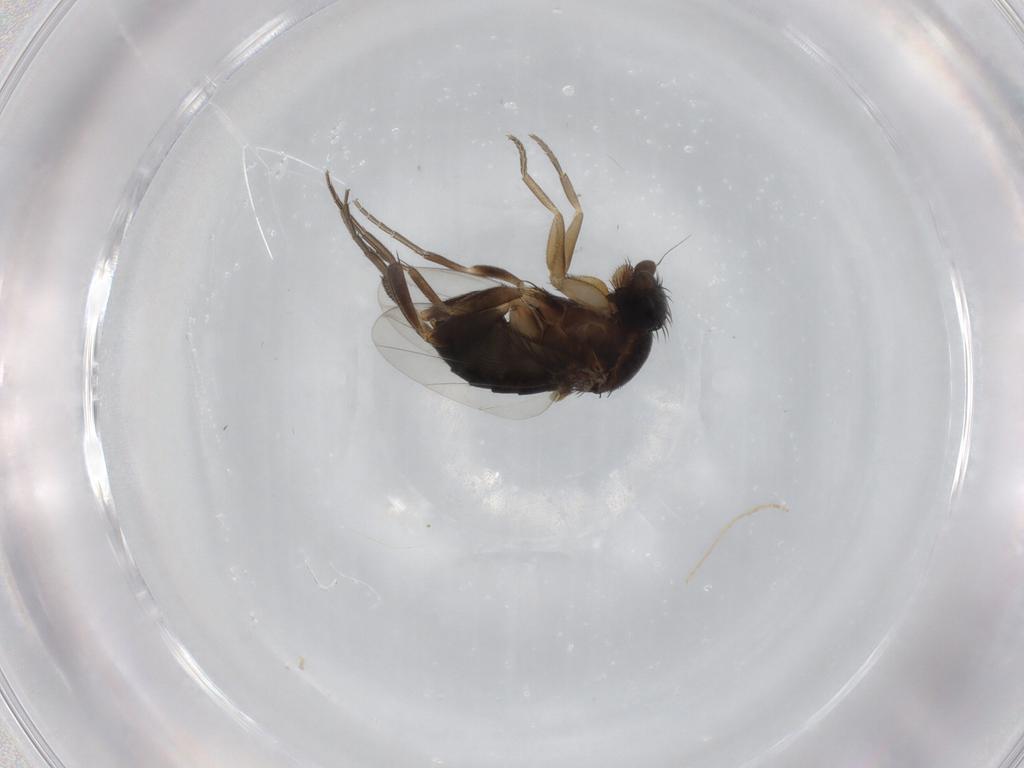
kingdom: Animalia
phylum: Arthropoda
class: Insecta
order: Diptera
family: Phoridae
